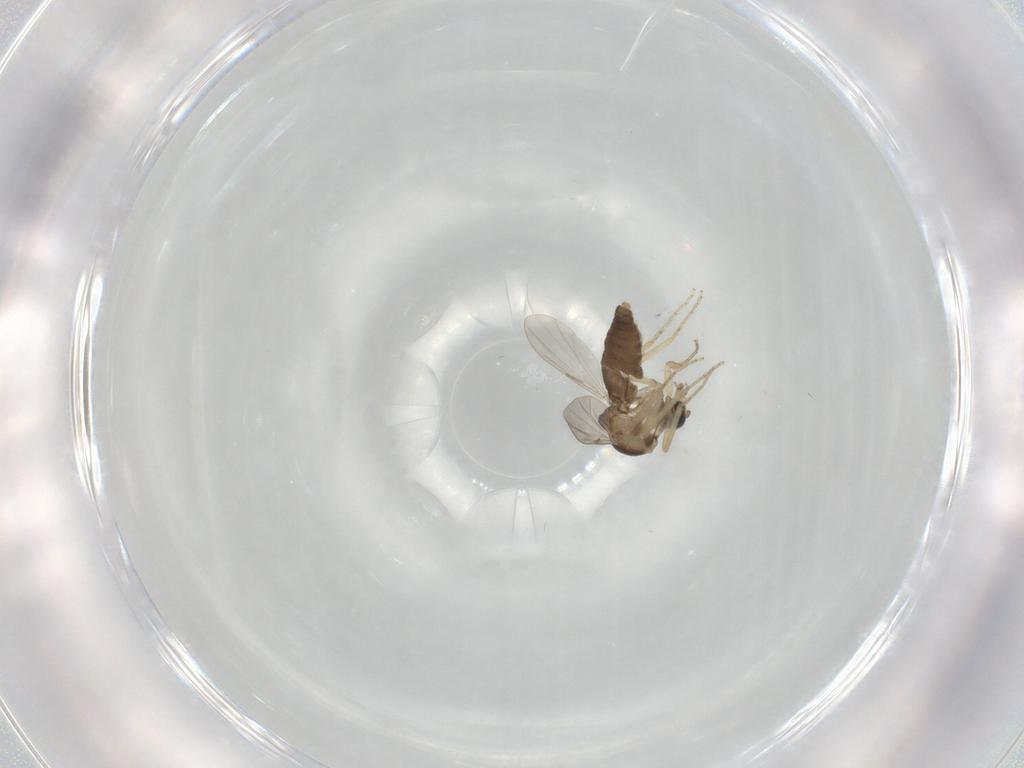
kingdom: Animalia
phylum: Arthropoda
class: Insecta
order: Diptera
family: Ceratopogonidae
